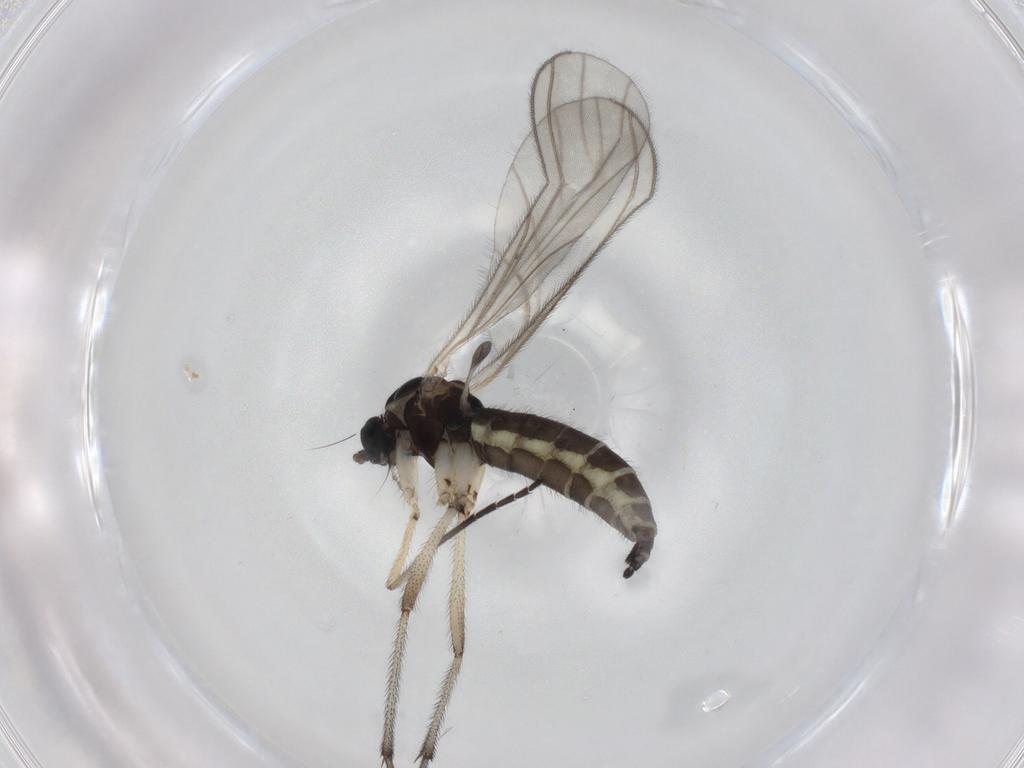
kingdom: Animalia
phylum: Arthropoda
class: Insecta
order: Diptera
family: Sciaridae
